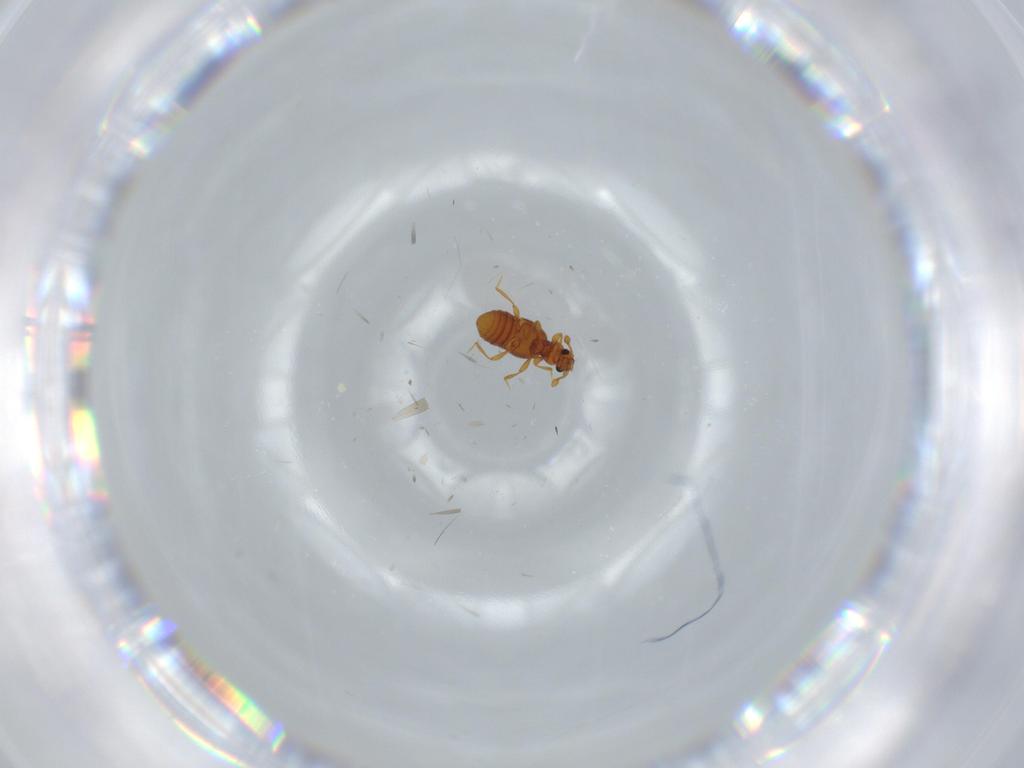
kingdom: Animalia
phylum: Arthropoda
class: Insecta
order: Coleoptera
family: Staphylinidae
